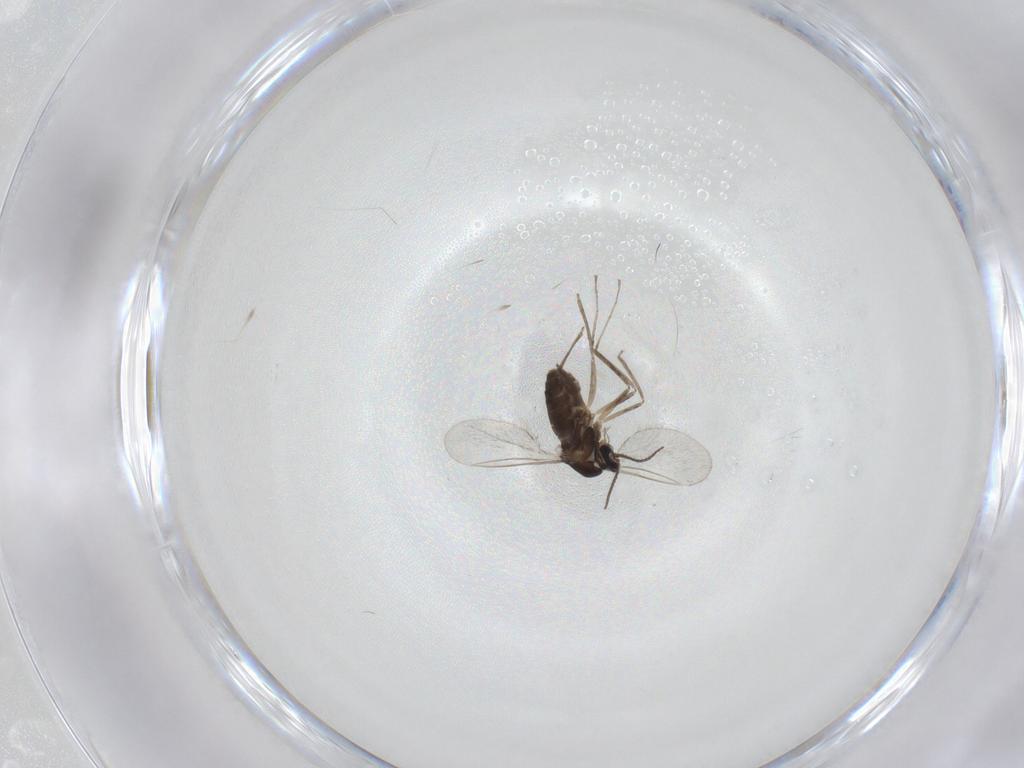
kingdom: Animalia
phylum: Arthropoda
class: Insecta
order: Diptera
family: Cecidomyiidae
